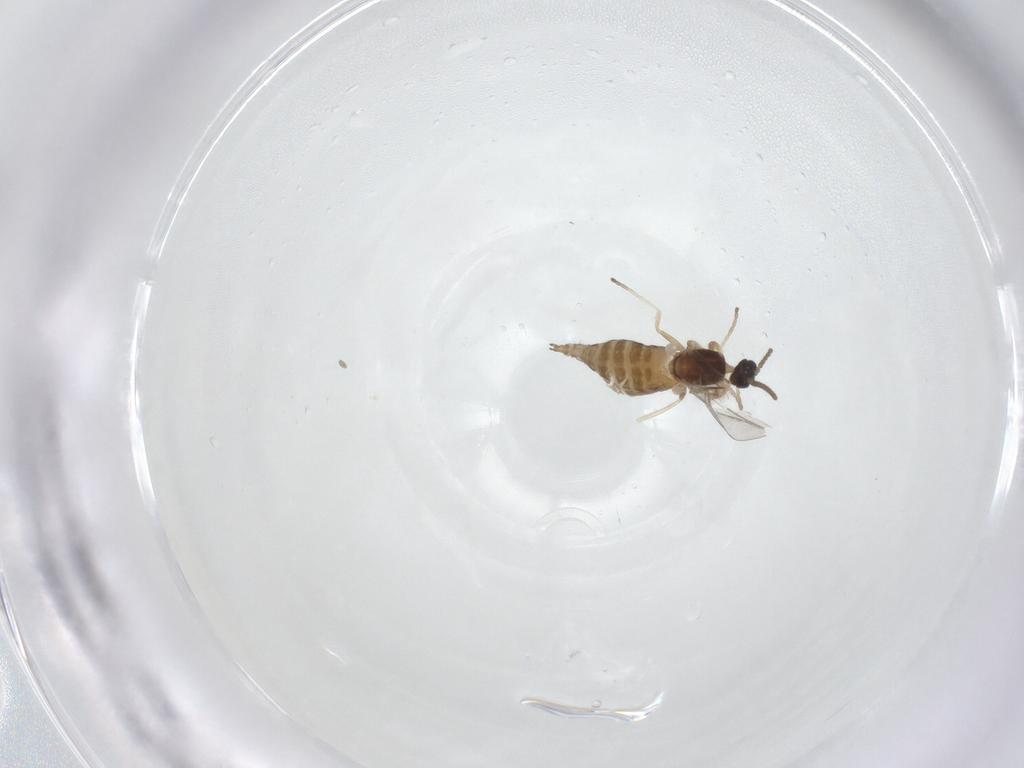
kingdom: Animalia
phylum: Arthropoda
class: Insecta
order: Diptera
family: Cecidomyiidae
